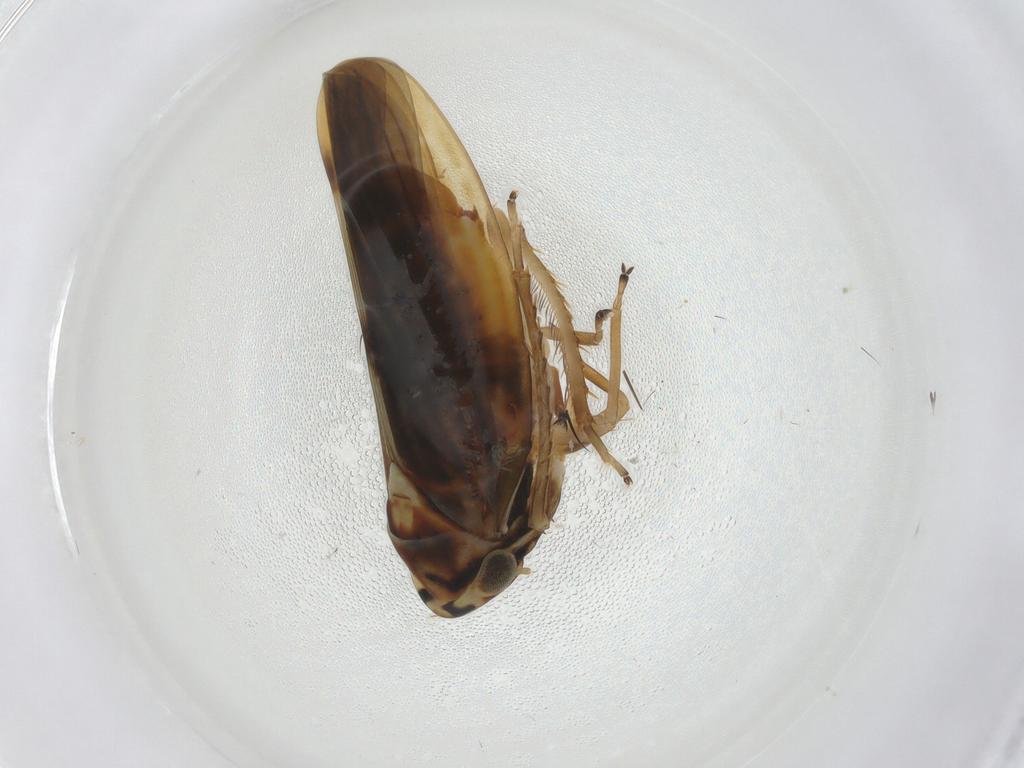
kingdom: Animalia
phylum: Arthropoda
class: Insecta
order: Hemiptera
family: Cicadellidae
